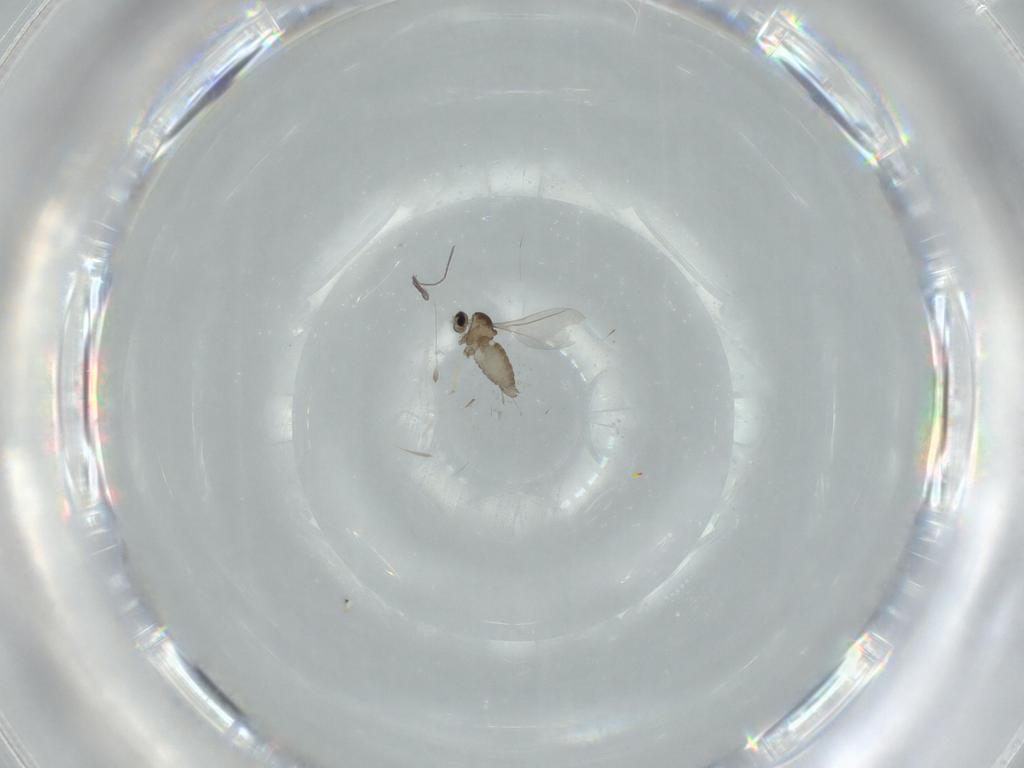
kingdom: Animalia
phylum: Arthropoda
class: Insecta
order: Diptera
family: Cecidomyiidae
